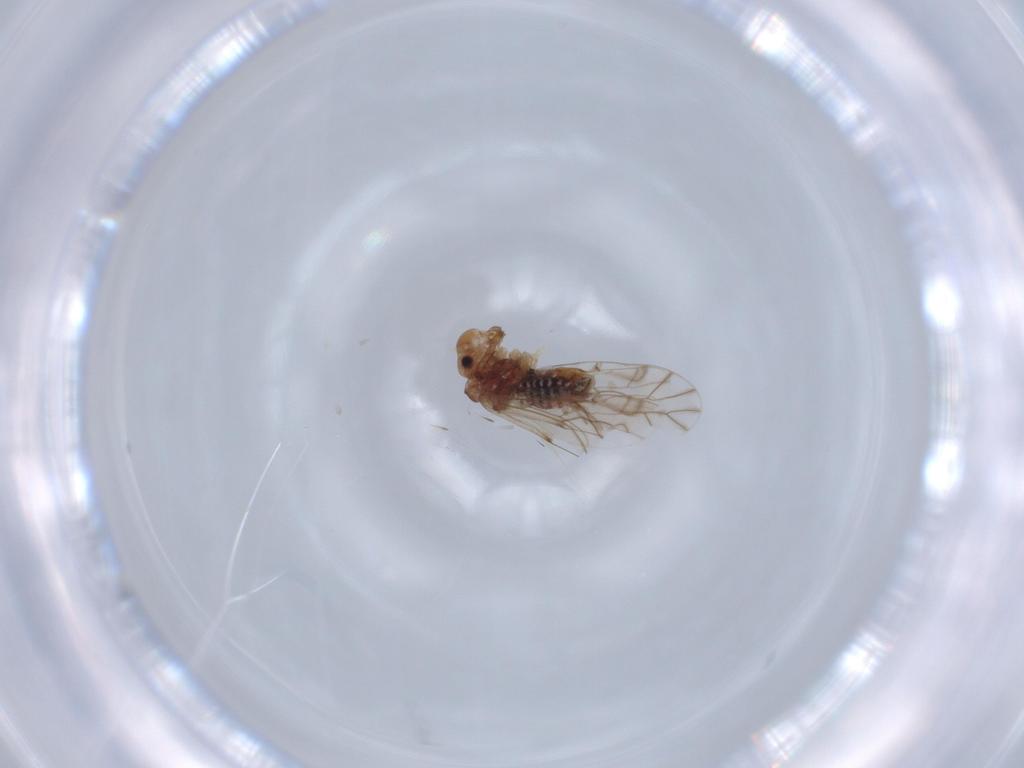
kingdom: Animalia
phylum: Arthropoda
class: Insecta
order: Psocodea
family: Lachesillidae
